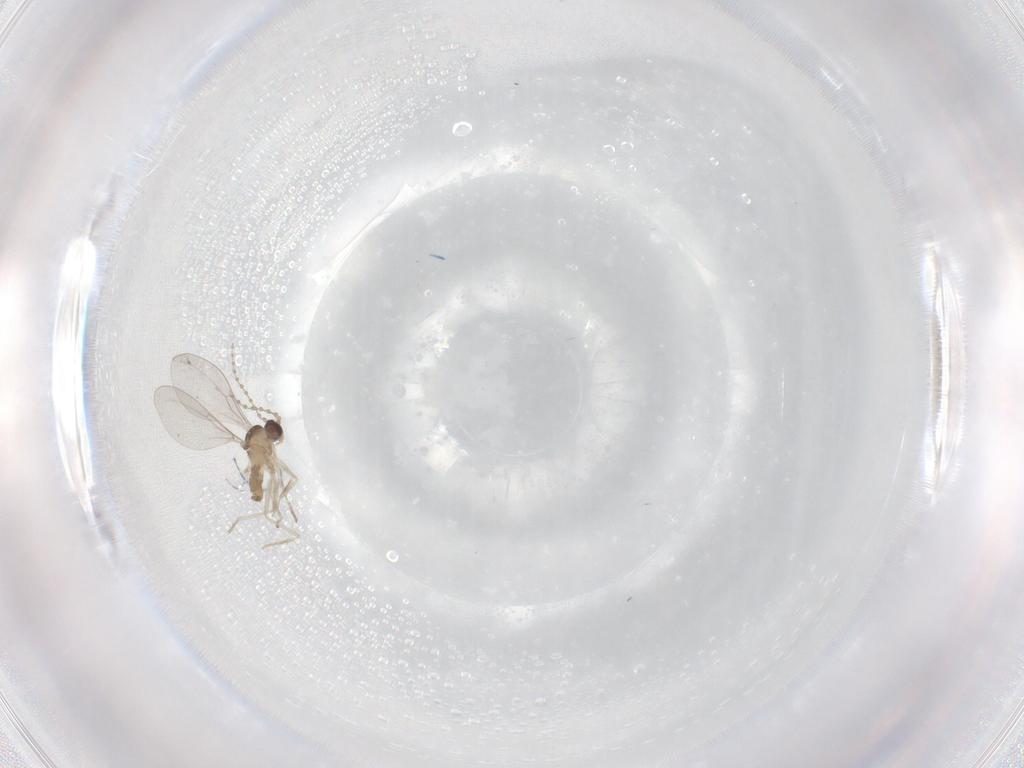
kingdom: Animalia
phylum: Arthropoda
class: Insecta
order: Diptera
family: Cecidomyiidae
